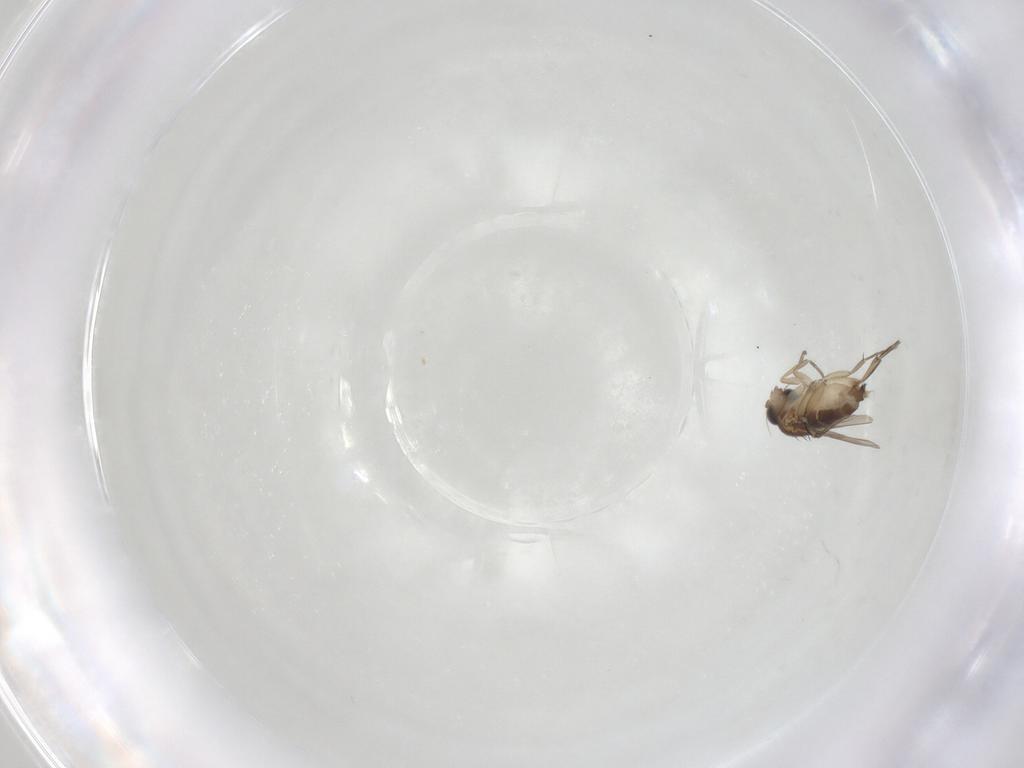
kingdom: Animalia
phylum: Arthropoda
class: Insecta
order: Diptera
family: Phoridae
